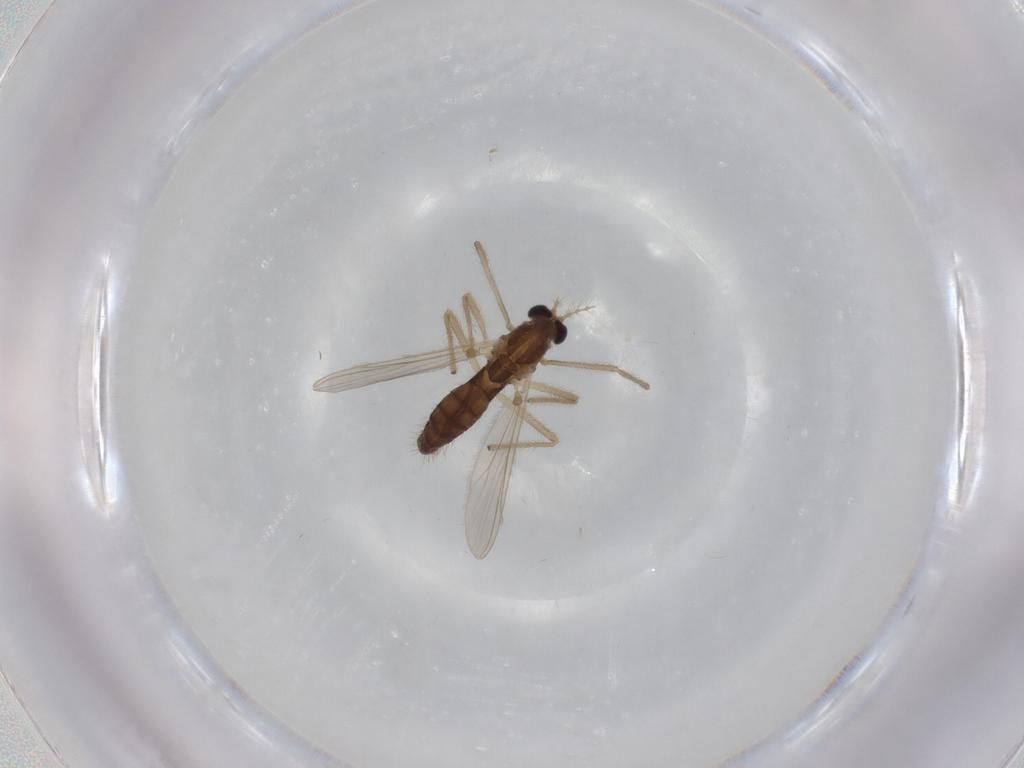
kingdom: Animalia
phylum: Arthropoda
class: Insecta
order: Diptera
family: Chironomidae
